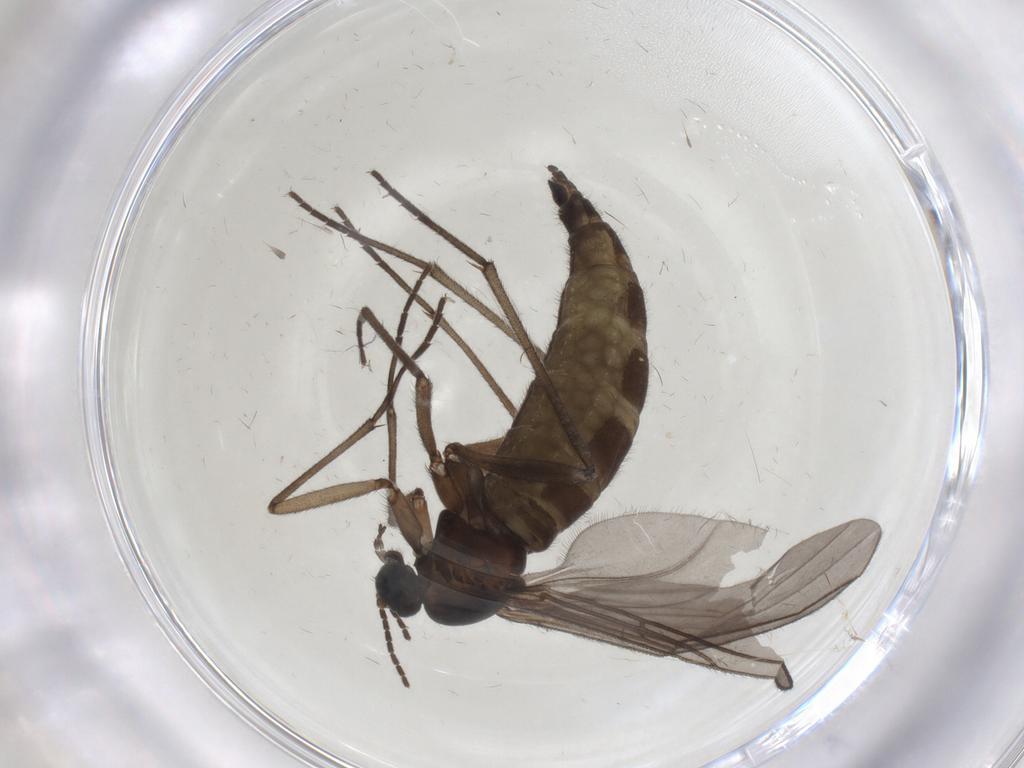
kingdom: Animalia
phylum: Arthropoda
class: Insecta
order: Diptera
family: Sciaridae
